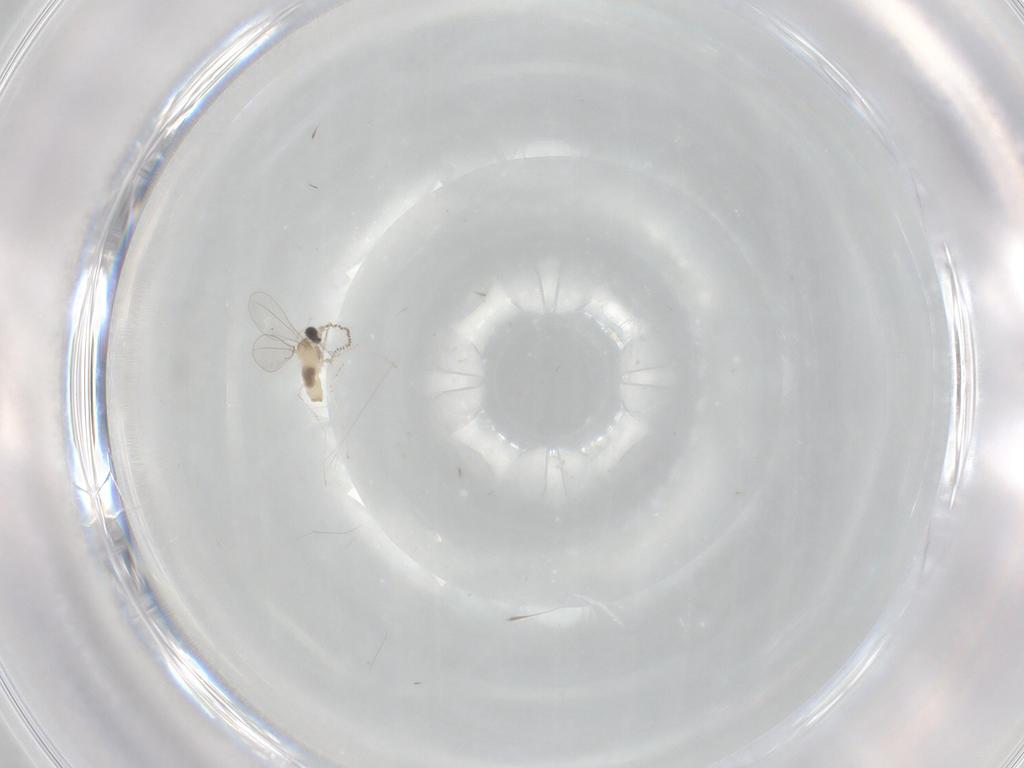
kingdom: Animalia
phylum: Arthropoda
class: Insecta
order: Diptera
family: Cecidomyiidae
